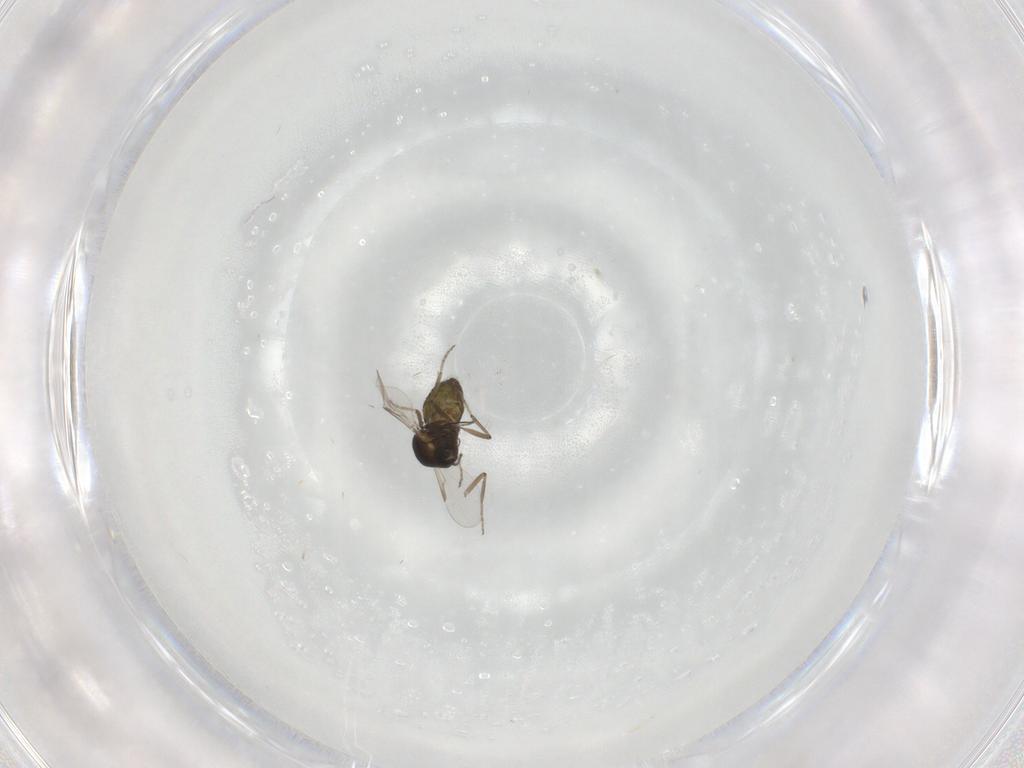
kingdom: Animalia
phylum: Arthropoda
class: Insecta
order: Diptera
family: Ceratopogonidae
